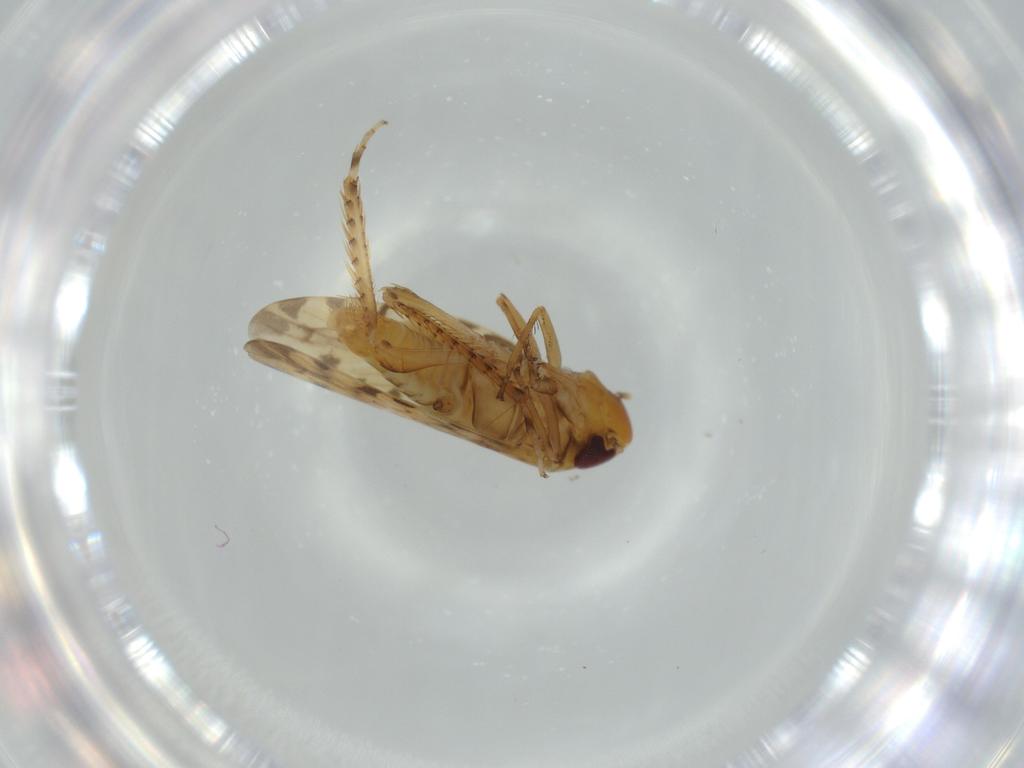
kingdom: Animalia
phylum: Arthropoda
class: Insecta
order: Hemiptera
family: Cicadellidae
